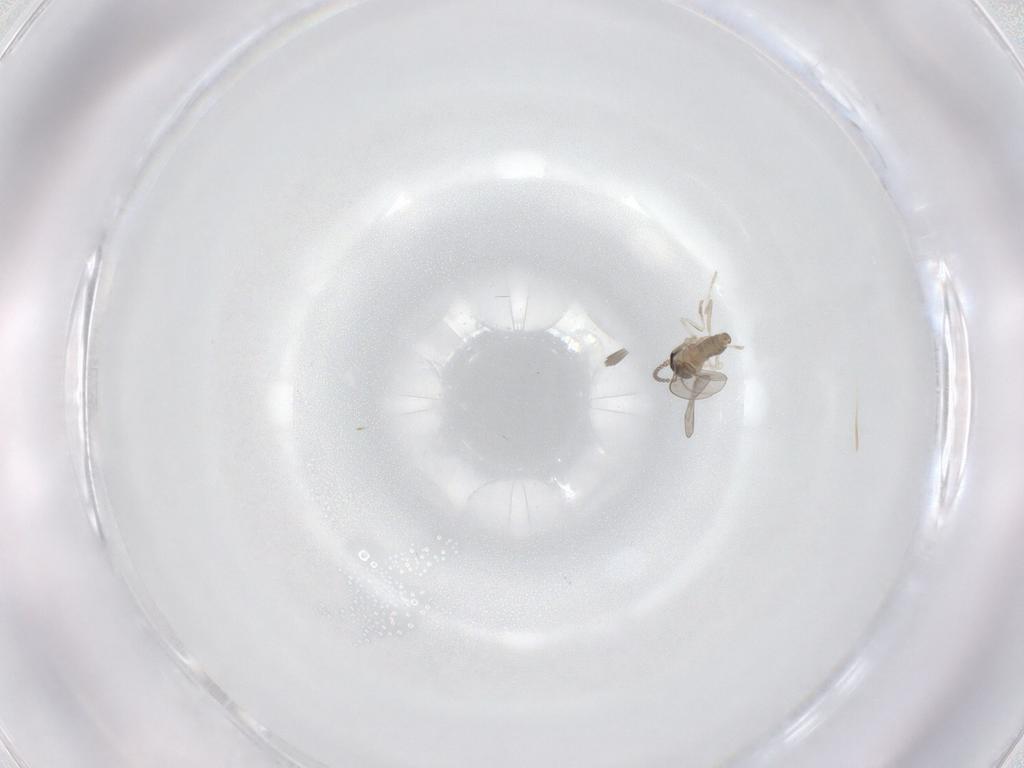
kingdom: Animalia
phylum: Arthropoda
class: Insecta
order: Diptera
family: Cecidomyiidae
